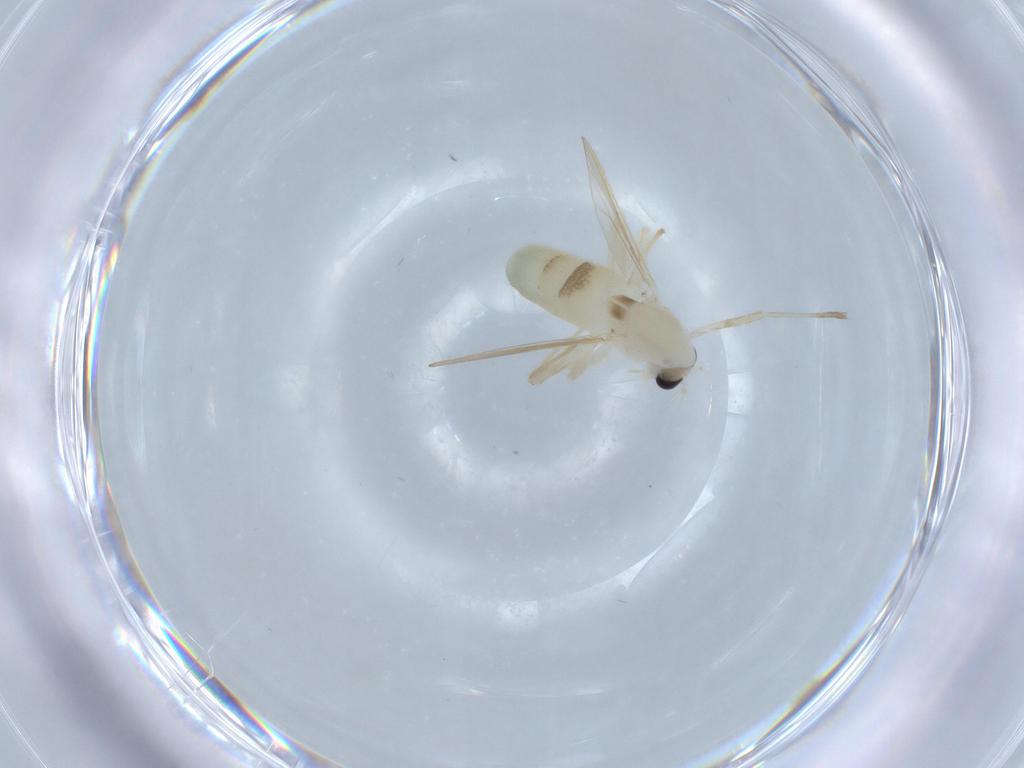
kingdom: Animalia
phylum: Arthropoda
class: Insecta
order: Diptera
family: Chironomidae
